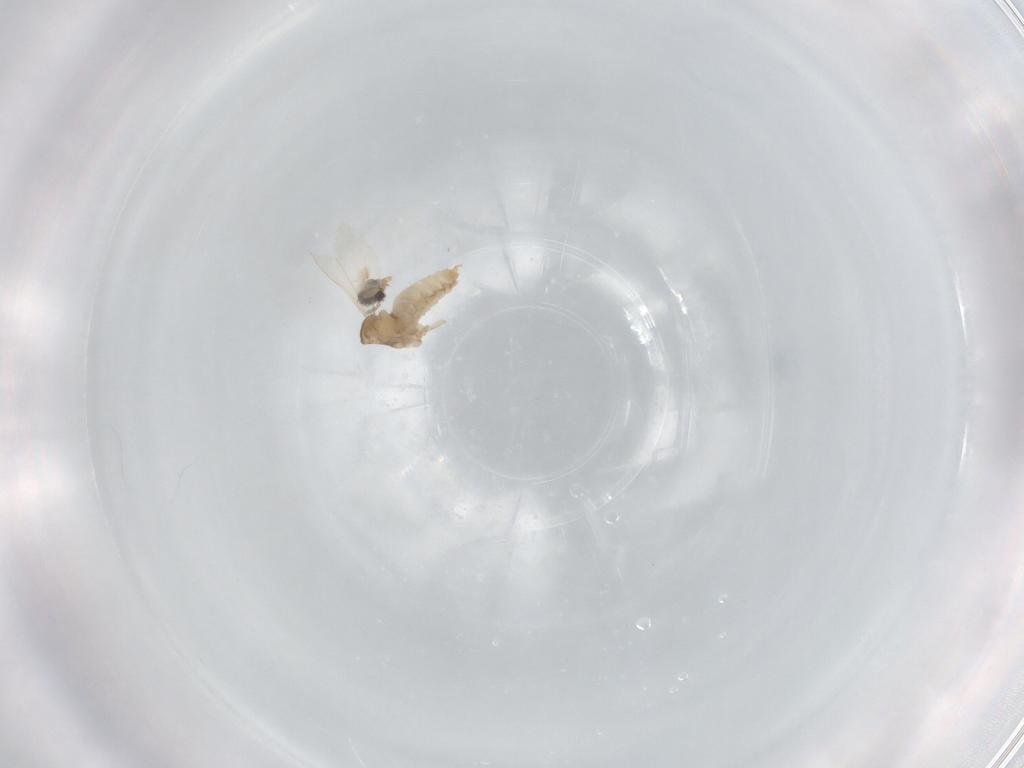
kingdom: Animalia
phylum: Arthropoda
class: Insecta
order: Diptera
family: Cecidomyiidae
